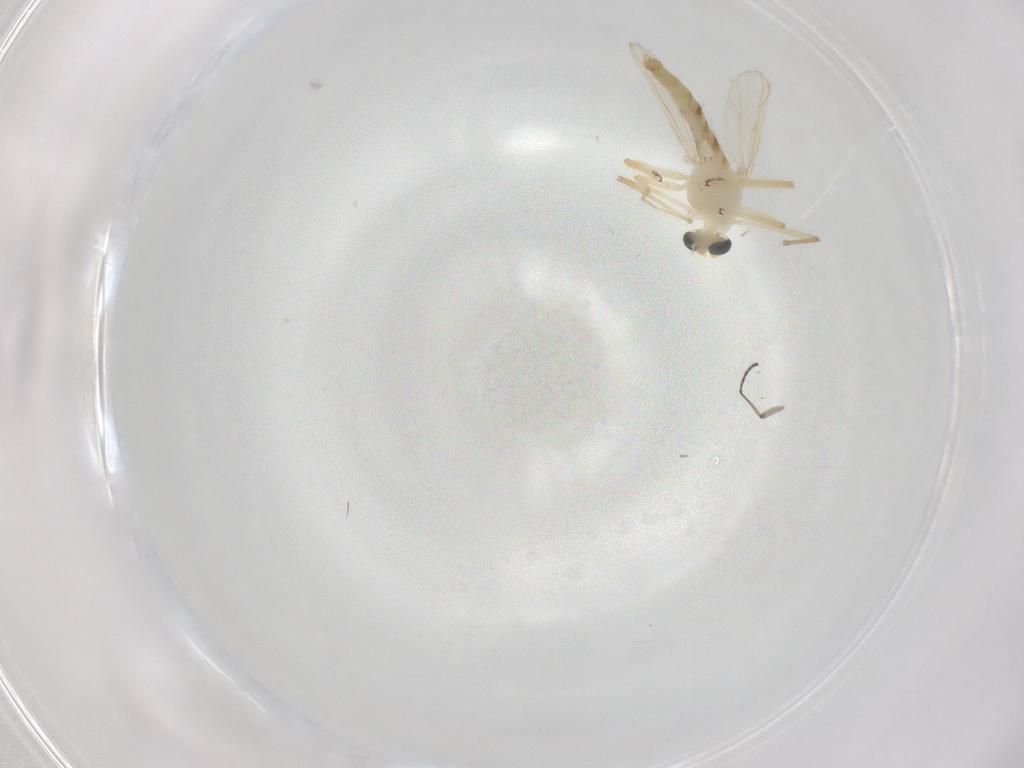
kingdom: Animalia
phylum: Arthropoda
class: Insecta
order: Diptera
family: Chironomidae
